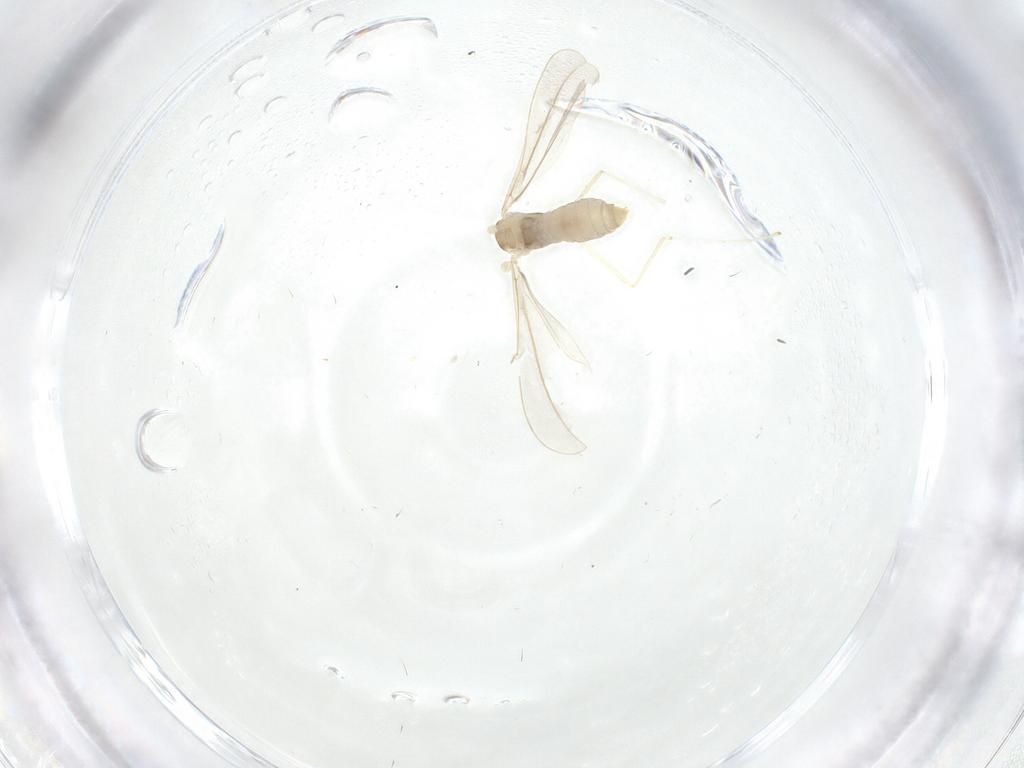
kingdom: Animalia
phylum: Arthropoda
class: Insecta
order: Diptera
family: Cecidomyiidae
